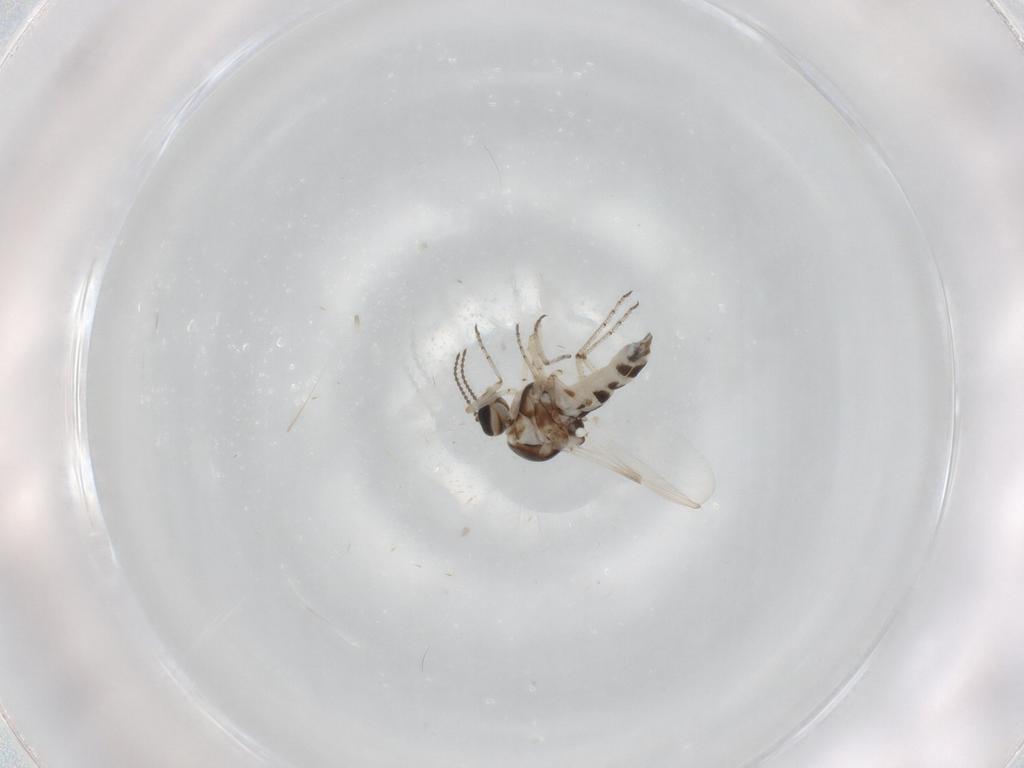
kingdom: Animalia
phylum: Arthropoda
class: Insecta
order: Diptera
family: Ceratopogonidae
